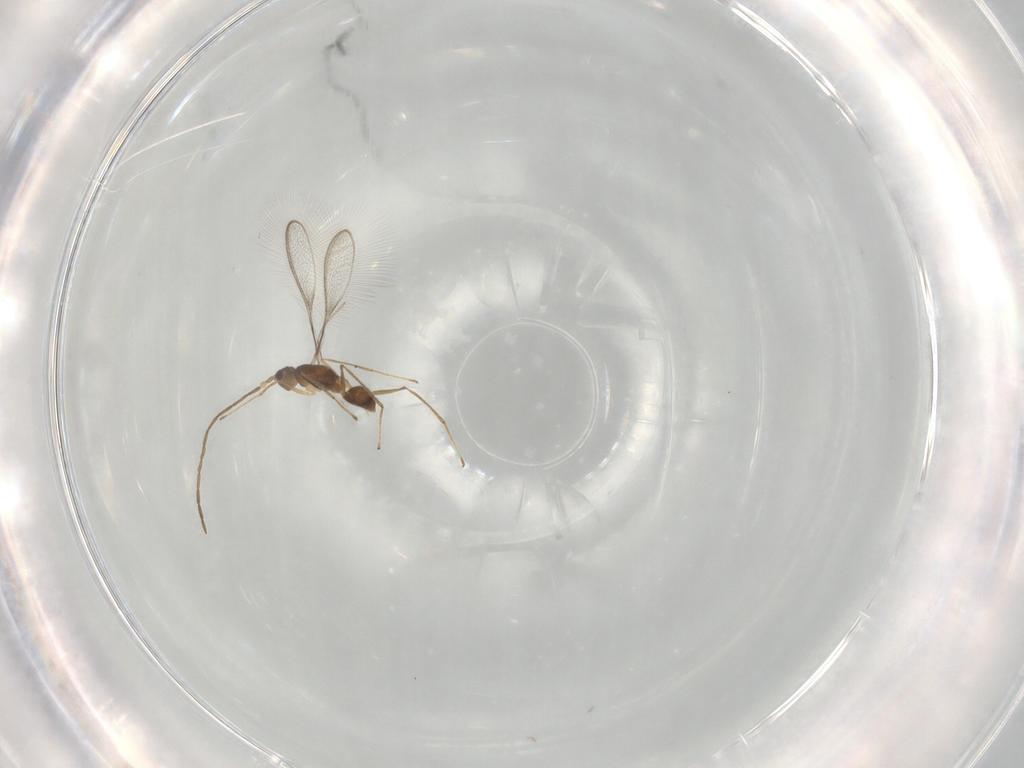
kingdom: Animalia
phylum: Arthropoda
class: Insecta
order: Hymenoptera
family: Mymaridae
